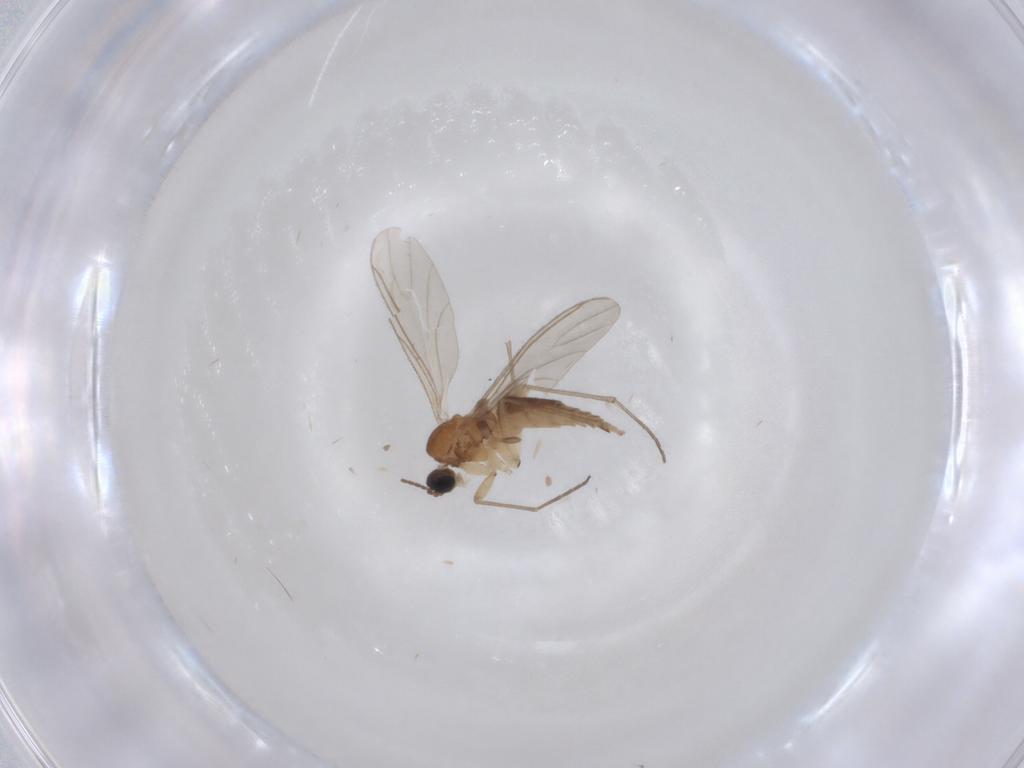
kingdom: Animalia
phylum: Arthropoda
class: Insecta
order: Diptera
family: Sciaridae
